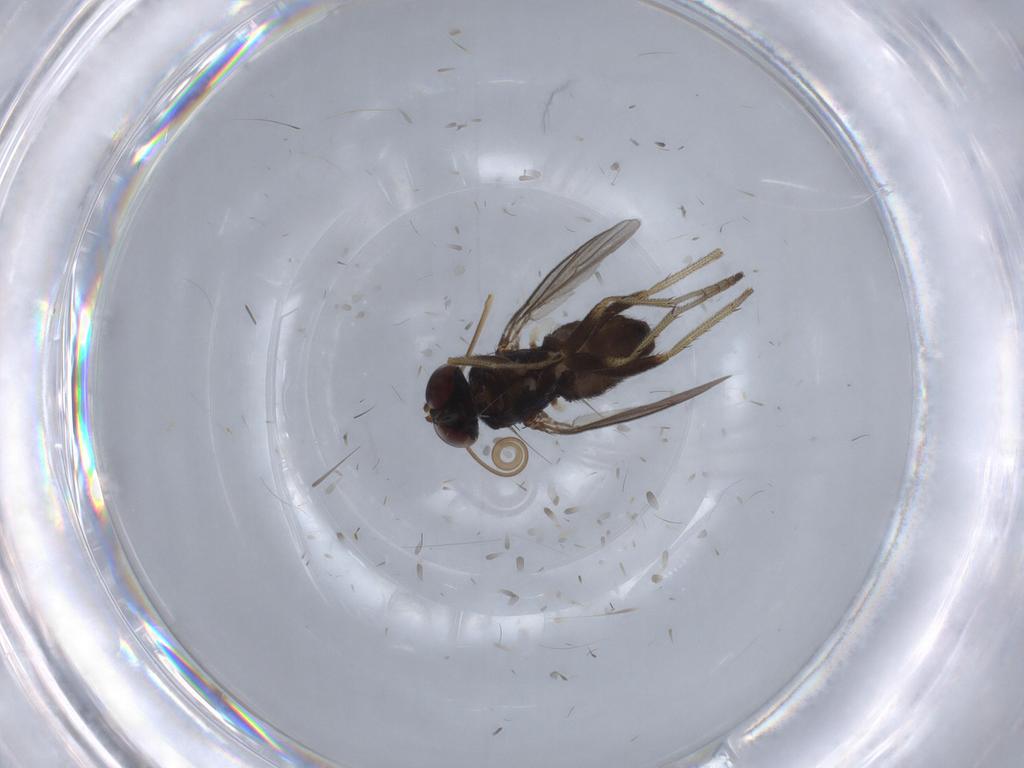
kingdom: Animalia
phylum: Arthropoda
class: Insecta
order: Diptera
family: Dolichopodidae
